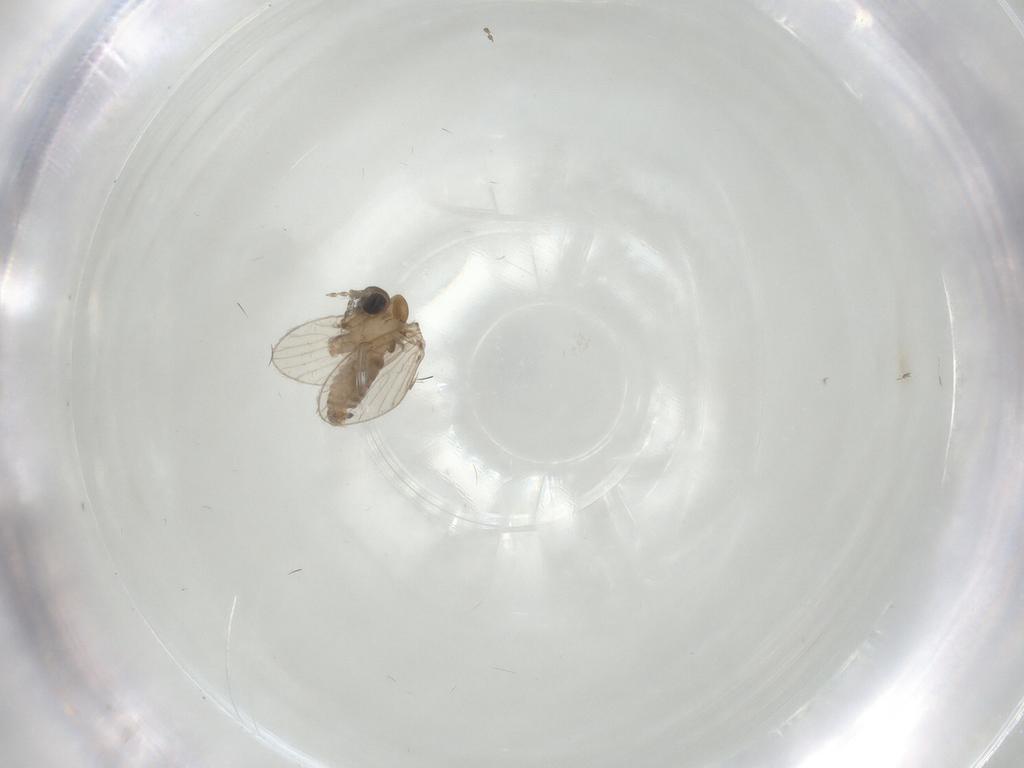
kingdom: Animalia
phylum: Arthropoda
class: Insecta
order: Diptera
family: Psychodidae
